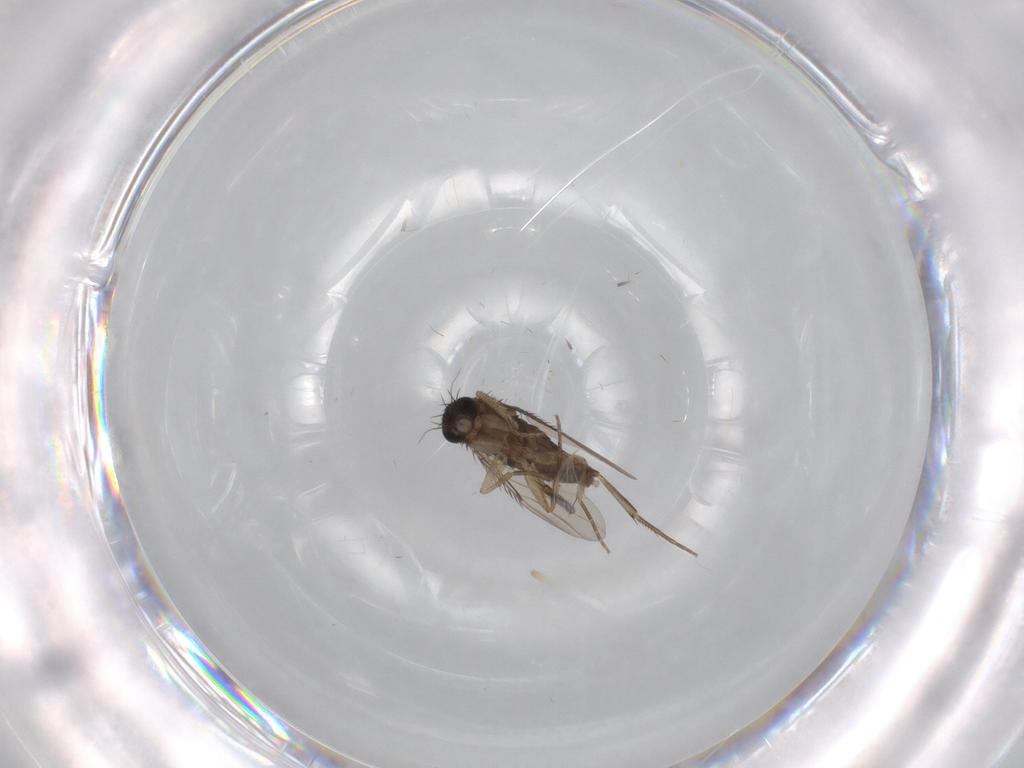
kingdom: Animalia
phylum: Arthropoda
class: Insecta
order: Diptera
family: Phoridae
